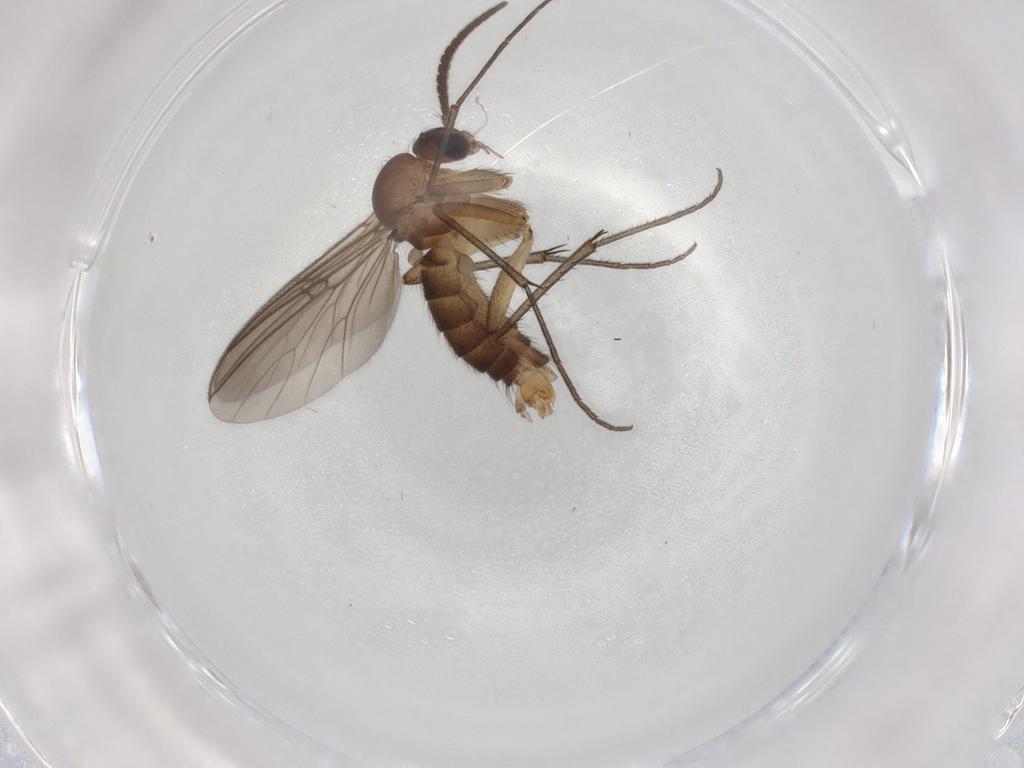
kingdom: Animalia
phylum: Arthropoda
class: Insecta
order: Diptera
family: Mycetophilidae
